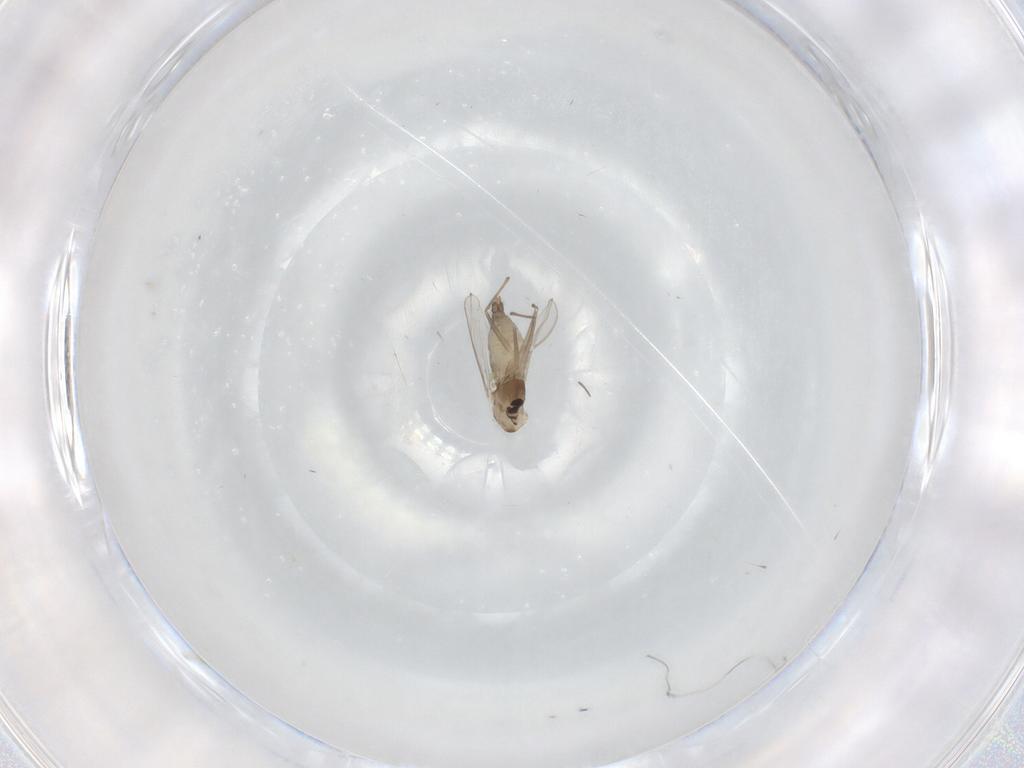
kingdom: Animalia
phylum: Arthropoda
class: Insecta
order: Diptera
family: Chironomidae
